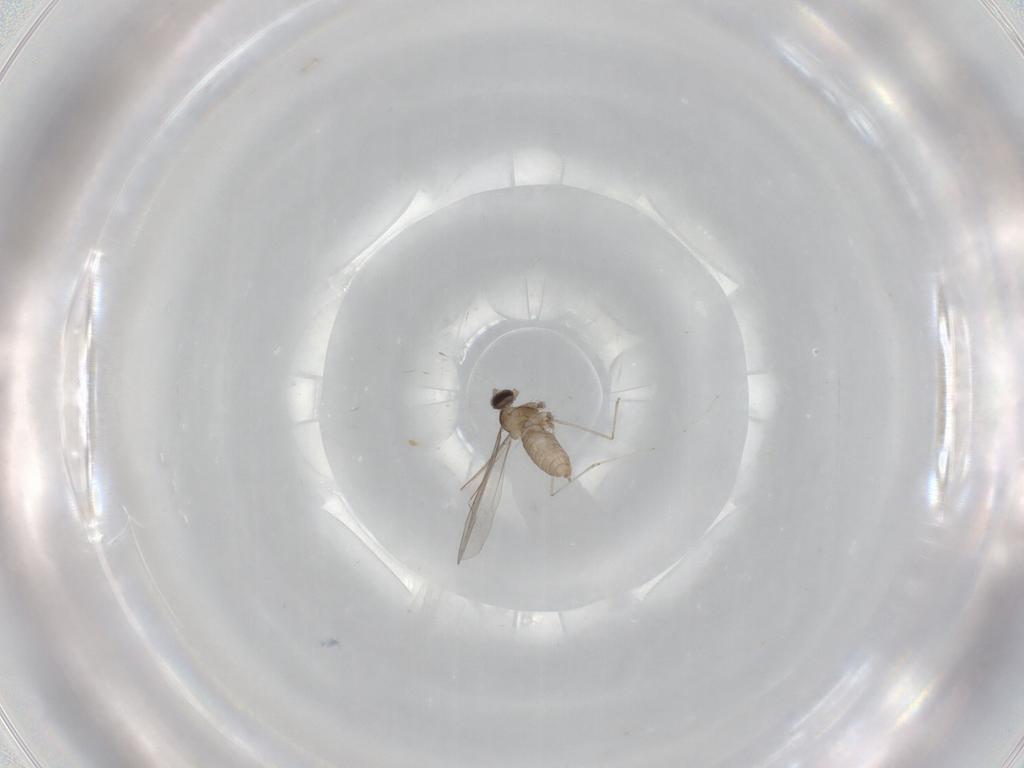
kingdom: Animalia
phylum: Arthropoda
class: Insecta
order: Diptera
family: Cecidomyiidae
